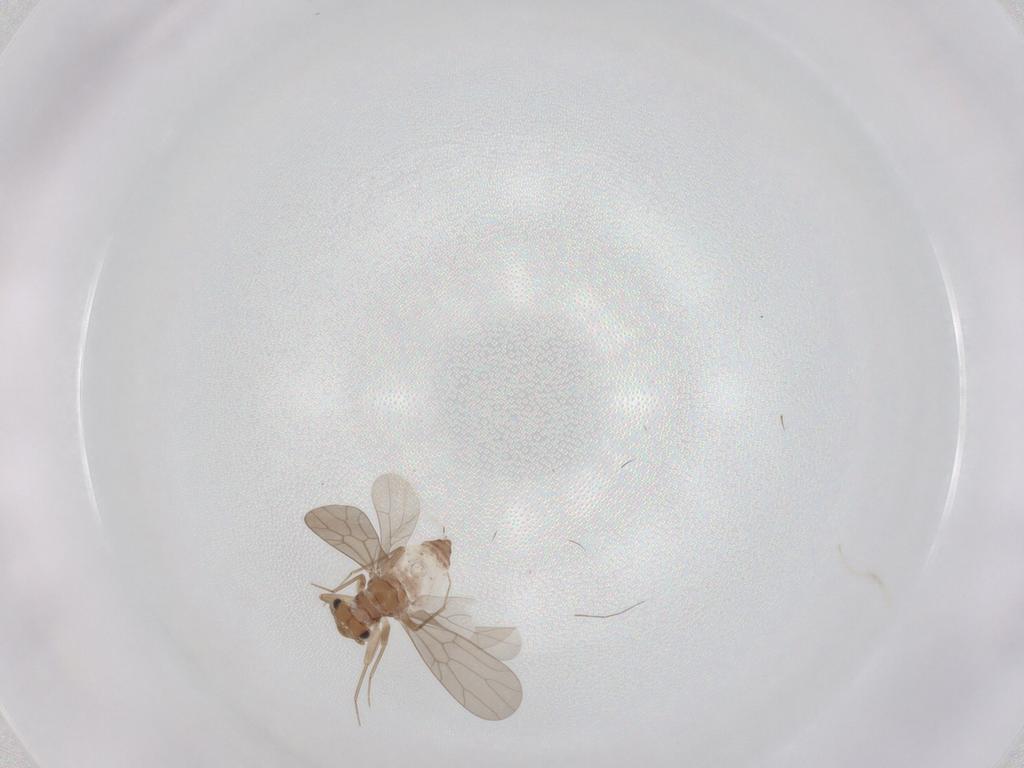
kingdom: Animalia
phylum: Arthropoda
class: Insecta
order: Psocodea
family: Lepidopsocidae
